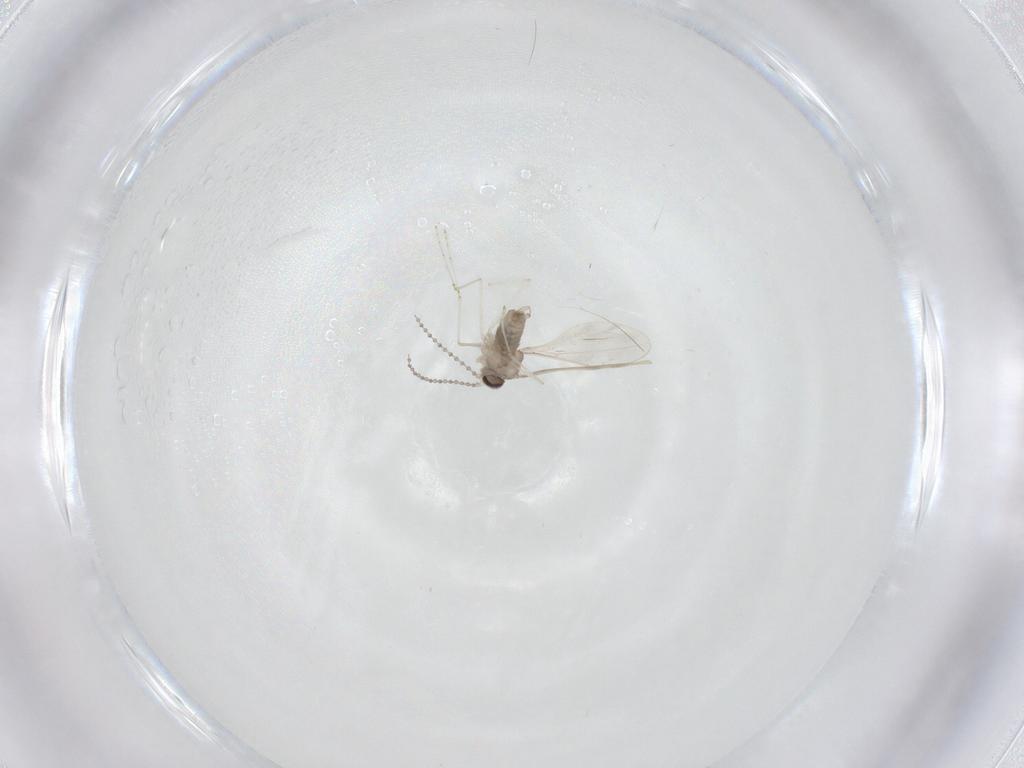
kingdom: Animalia
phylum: Arthropoda
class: Insecta
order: Diptera
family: Cecidomyiidae
